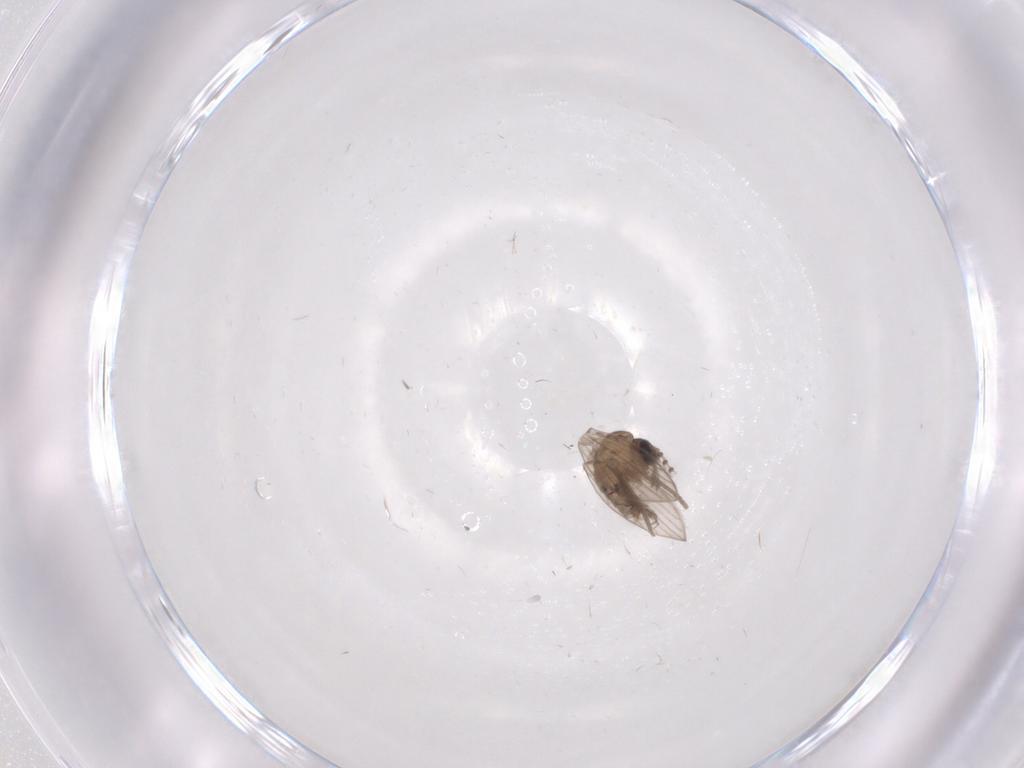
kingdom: Animalia
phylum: Arthropoda
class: Insecta
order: Diptera
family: Psychodidae
